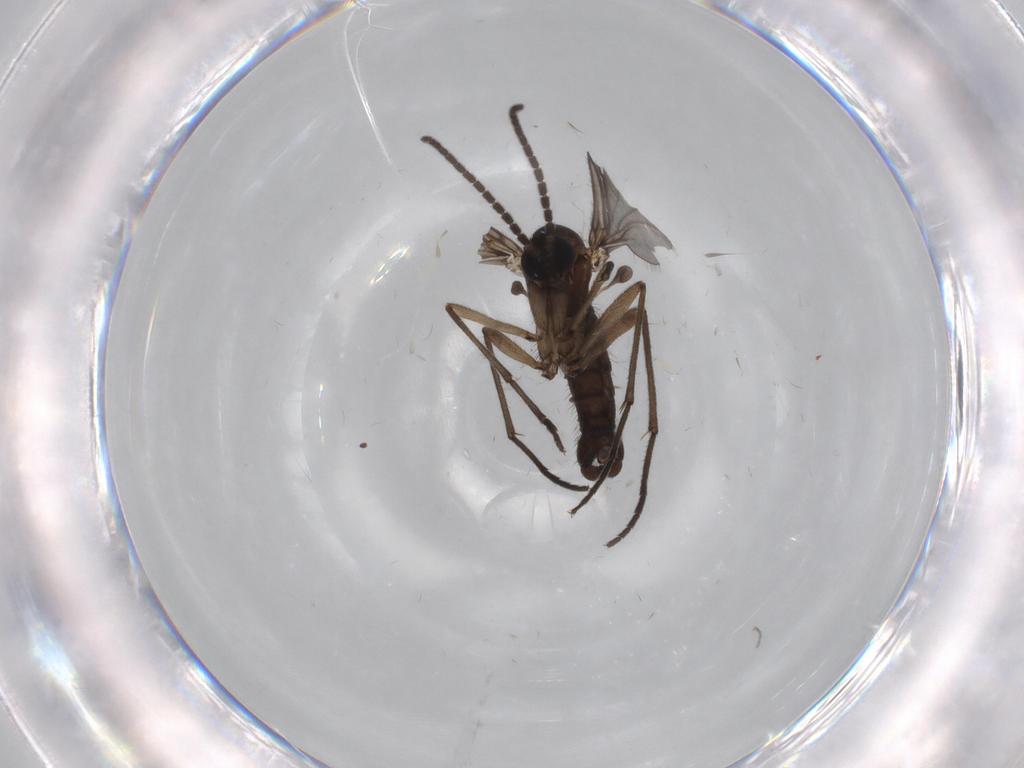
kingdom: Animalia
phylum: Arthropoda
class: Insecta
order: Diptera
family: Sciaridae
